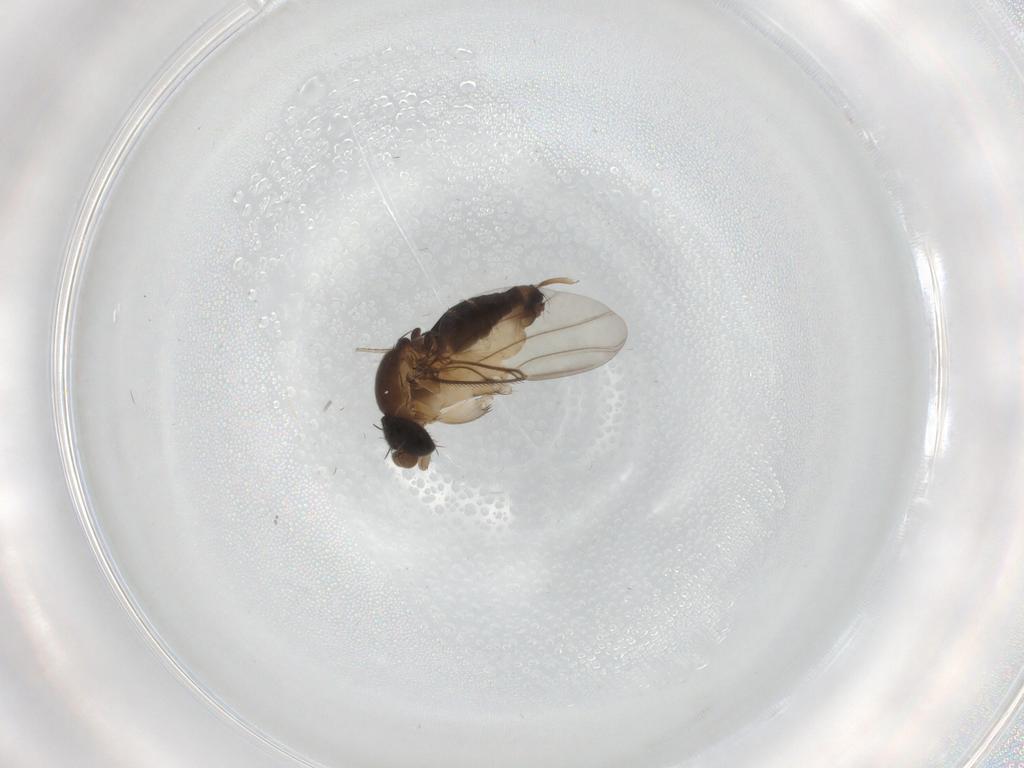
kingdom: Animalia
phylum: Arthropoda
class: Insecta
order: Diptera
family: Phoridae
